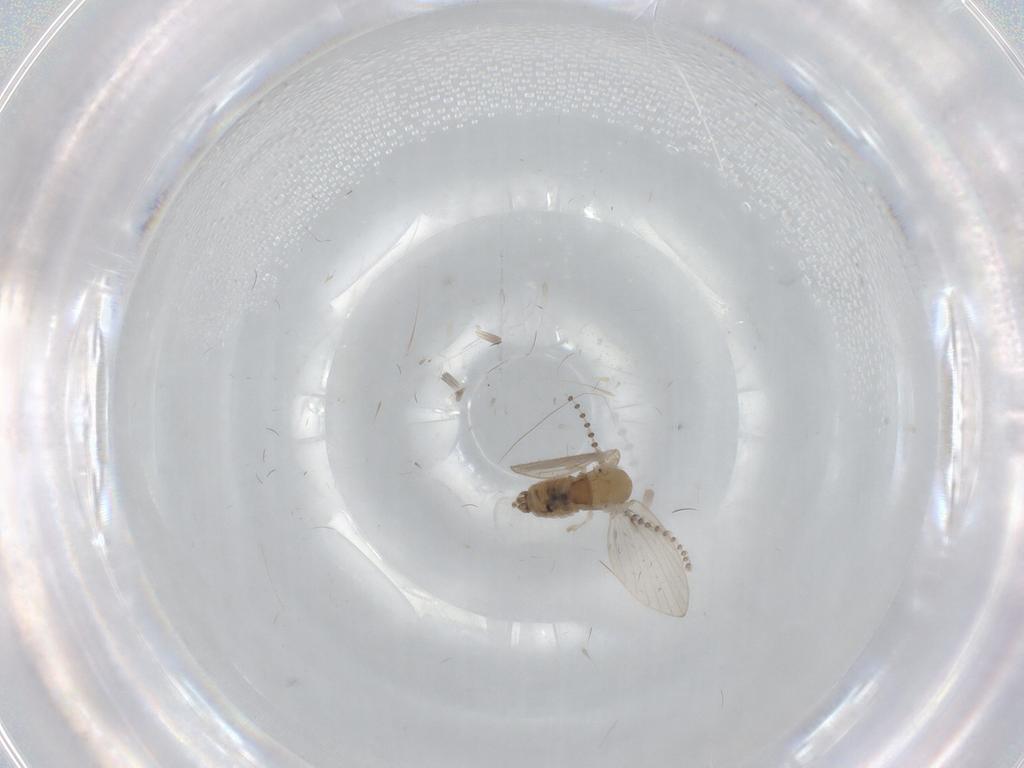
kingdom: Animalia
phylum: Arthropoda
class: Insecta
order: Diptera
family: Psychodidae
